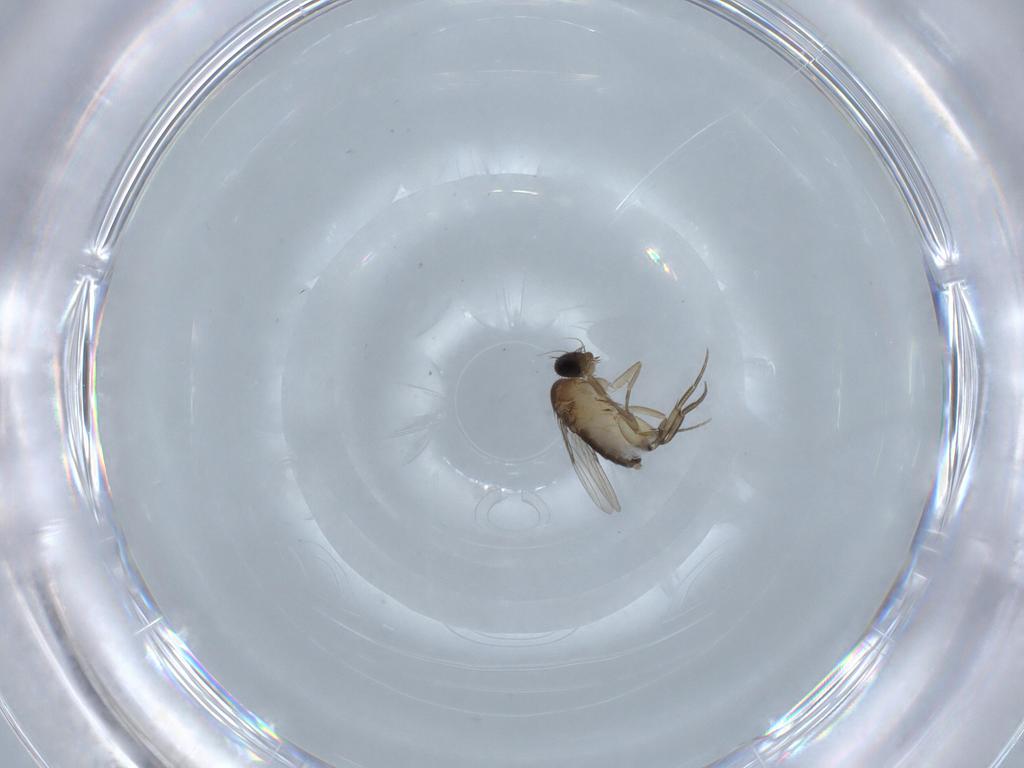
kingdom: Animalia
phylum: Arthropoda
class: Insecta
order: Diptera
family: Phoridae
